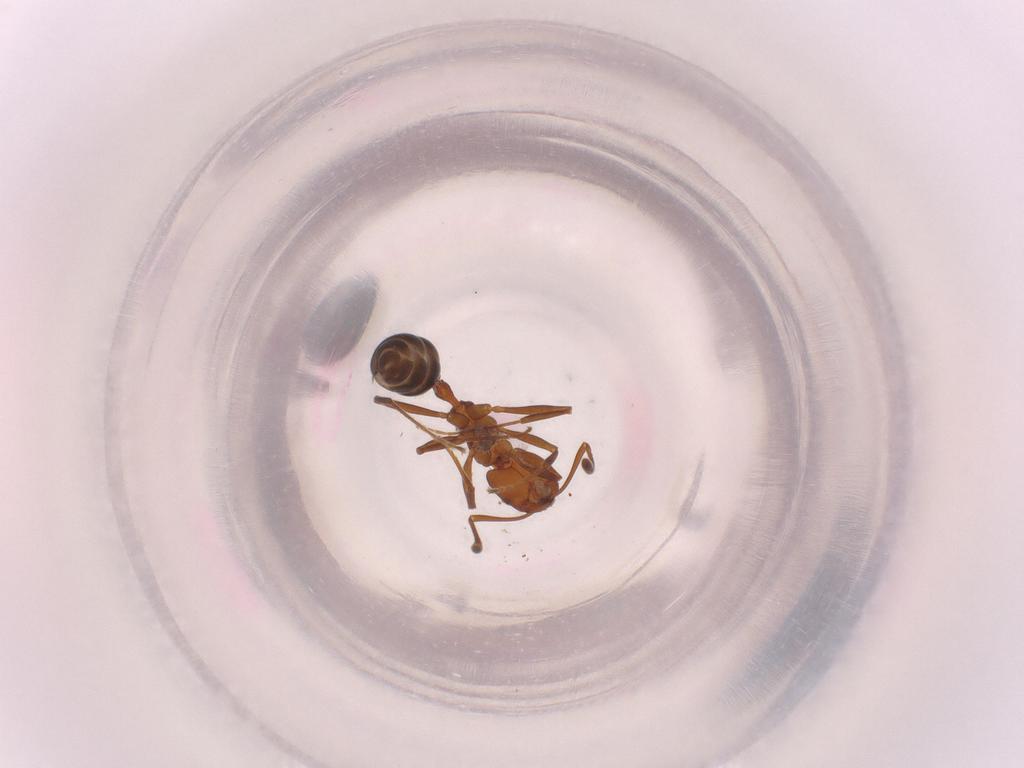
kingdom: Animalia
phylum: Arthropoda
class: Insecta
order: Hymenoptera
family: Formicidae
